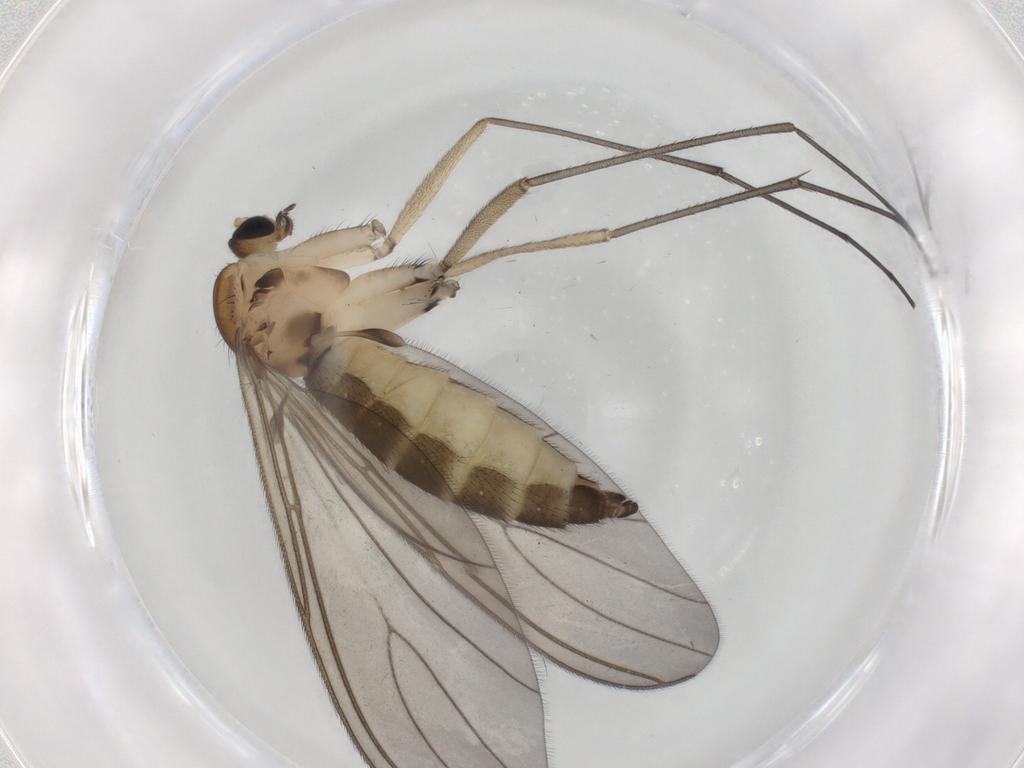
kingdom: Animalia
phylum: Arthropoda
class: Insecta
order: Diptera
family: Sciaridae
